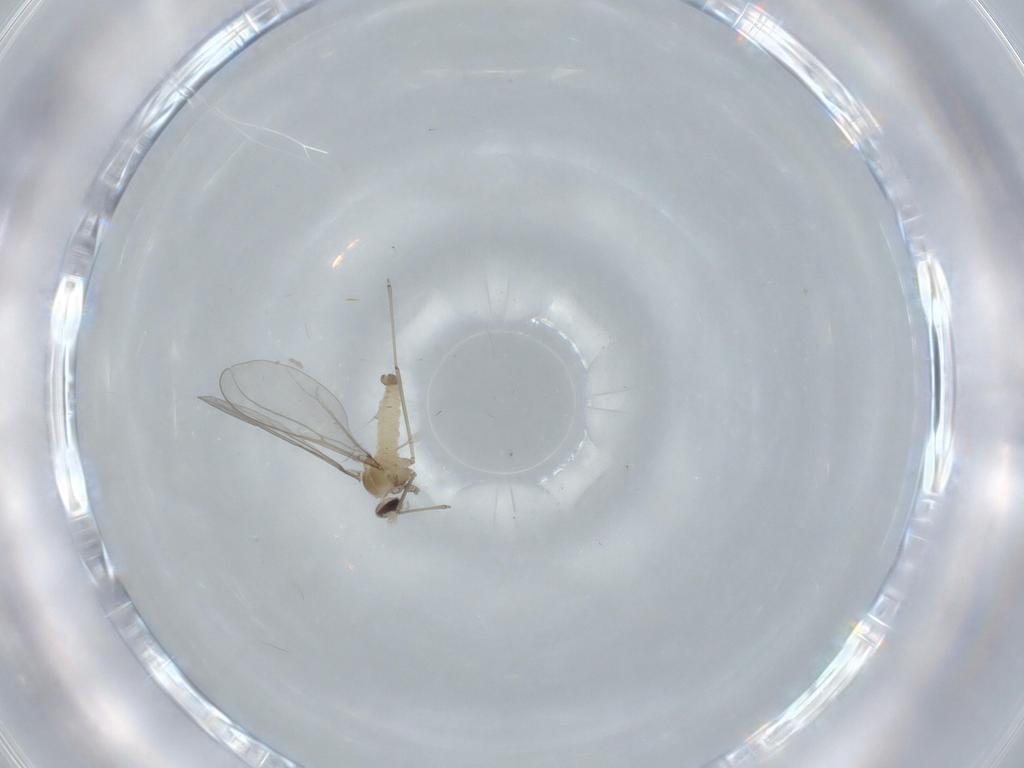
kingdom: Animalia
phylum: Arthropoda
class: Insecta
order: Diptera
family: Cecidomyiidae
